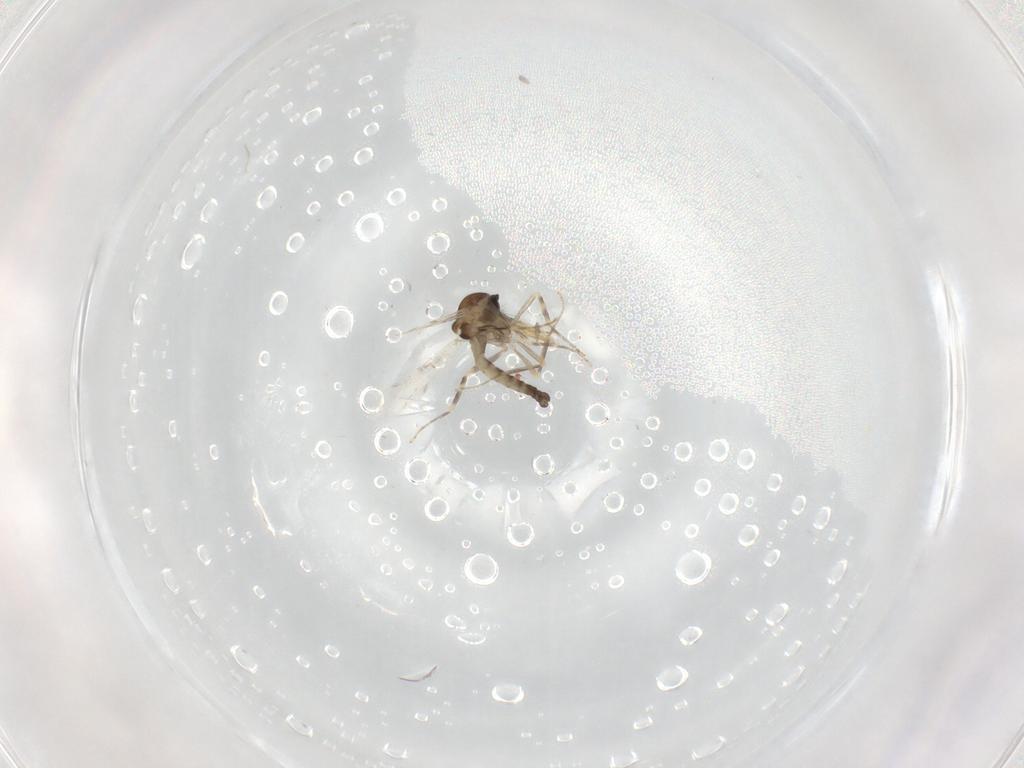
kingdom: Animalia
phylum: Arthropoda
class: Insecta
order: Diptera
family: Ceratopogonidae
